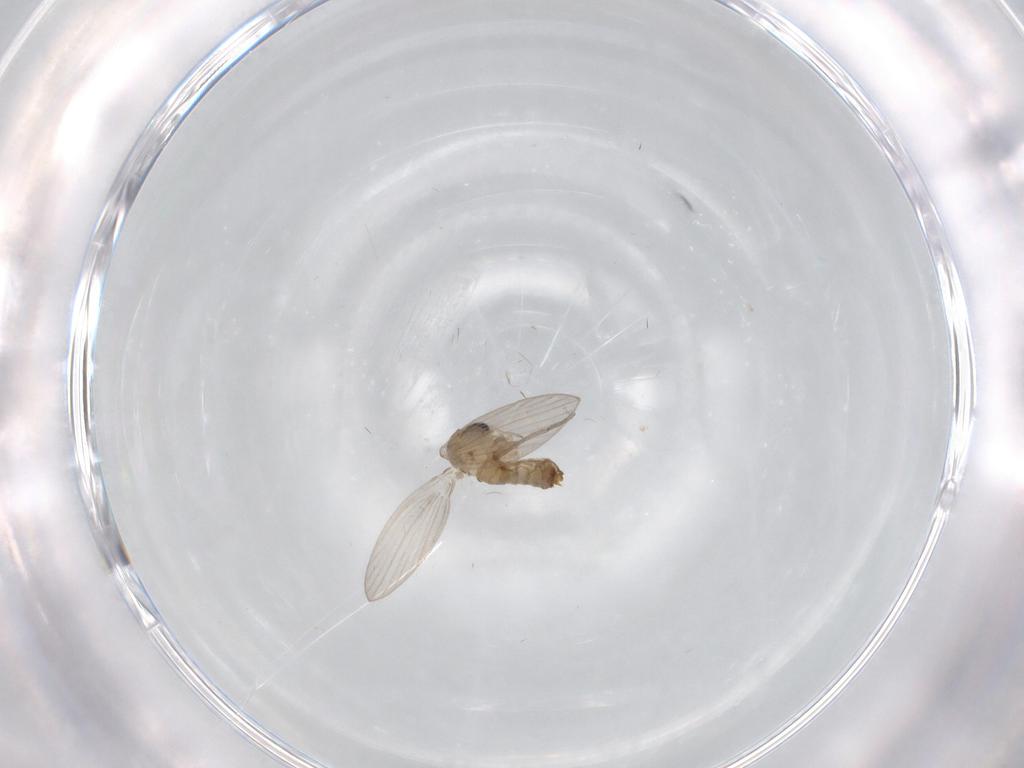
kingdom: Animalia
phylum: Arthropoda
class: Insecta
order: Diptera
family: Psychodidae
